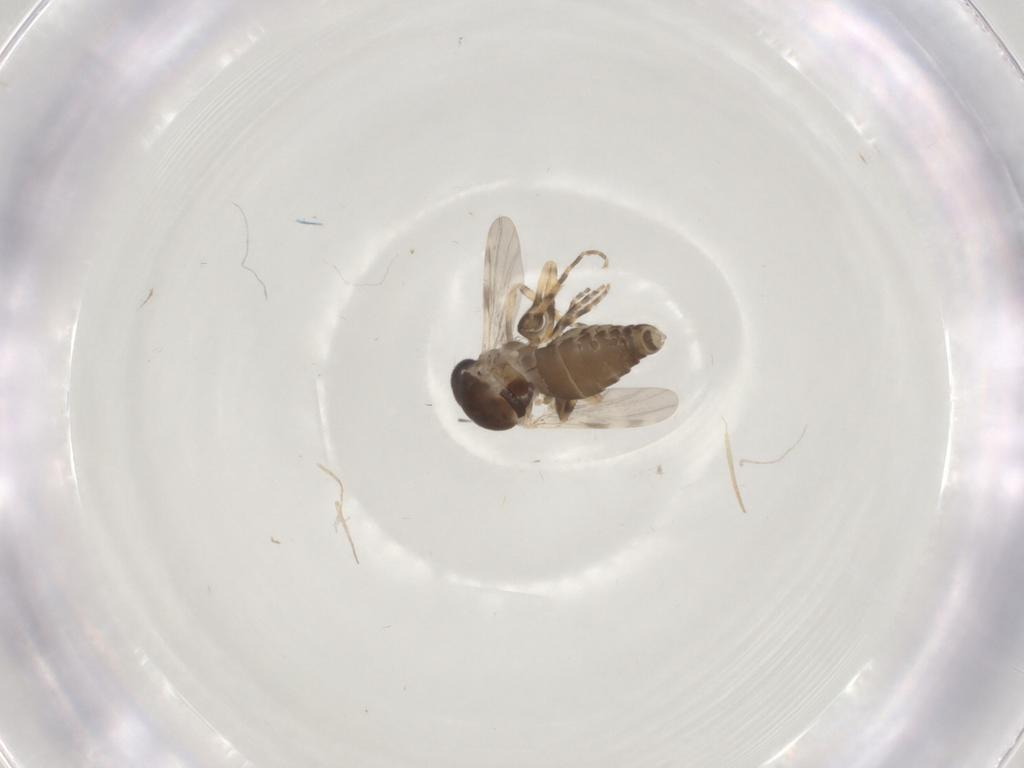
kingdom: Animalia
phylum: Arthropoda
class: Insecta
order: Diptera
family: Ceratopogonidae
